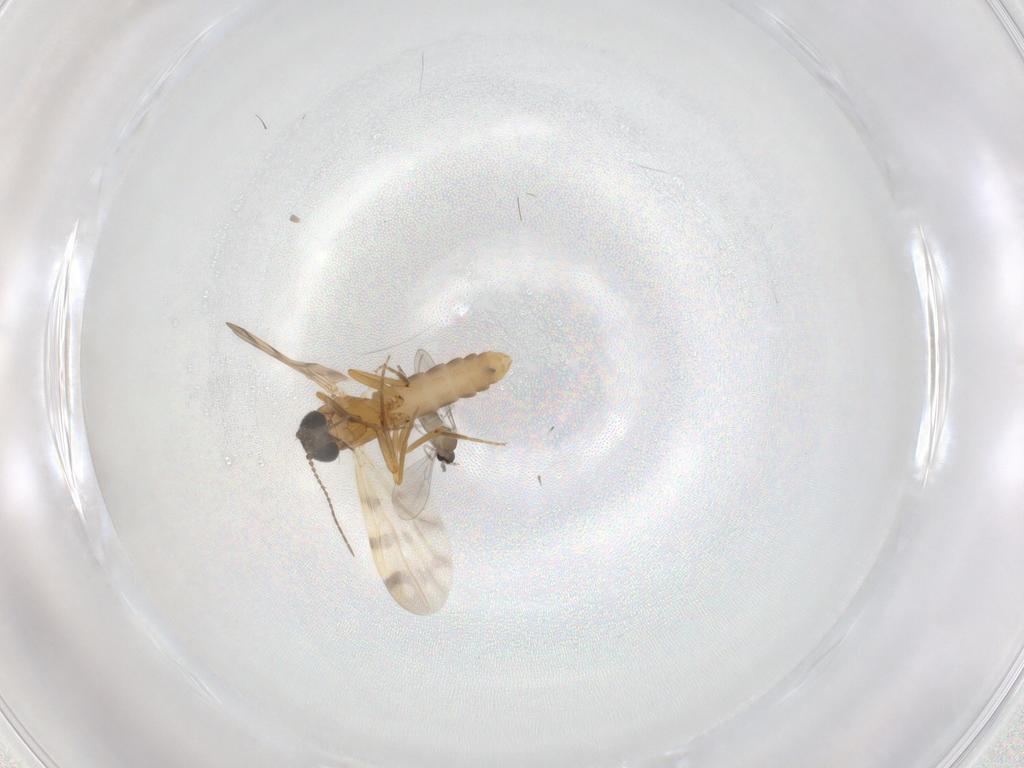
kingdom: Animalia
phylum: Arthropoda
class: Insecta
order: Diptera
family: Cecidomyiidae
